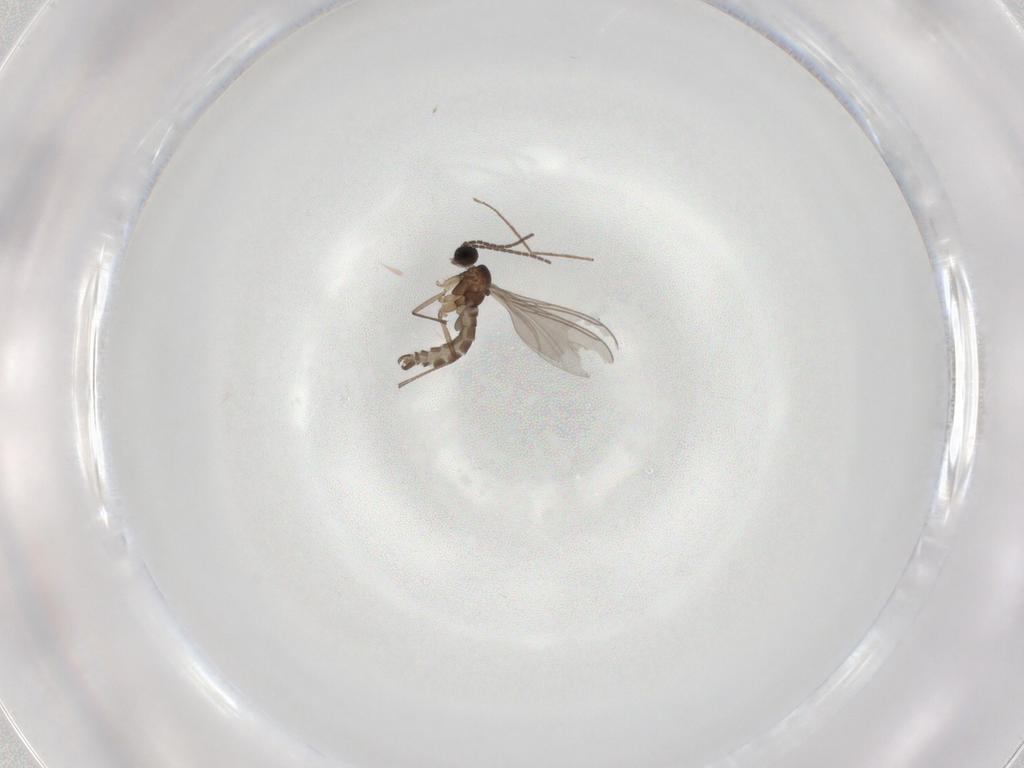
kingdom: Animalia
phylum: Arthropoda
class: Insecta
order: Diptera
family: Sciaridae
